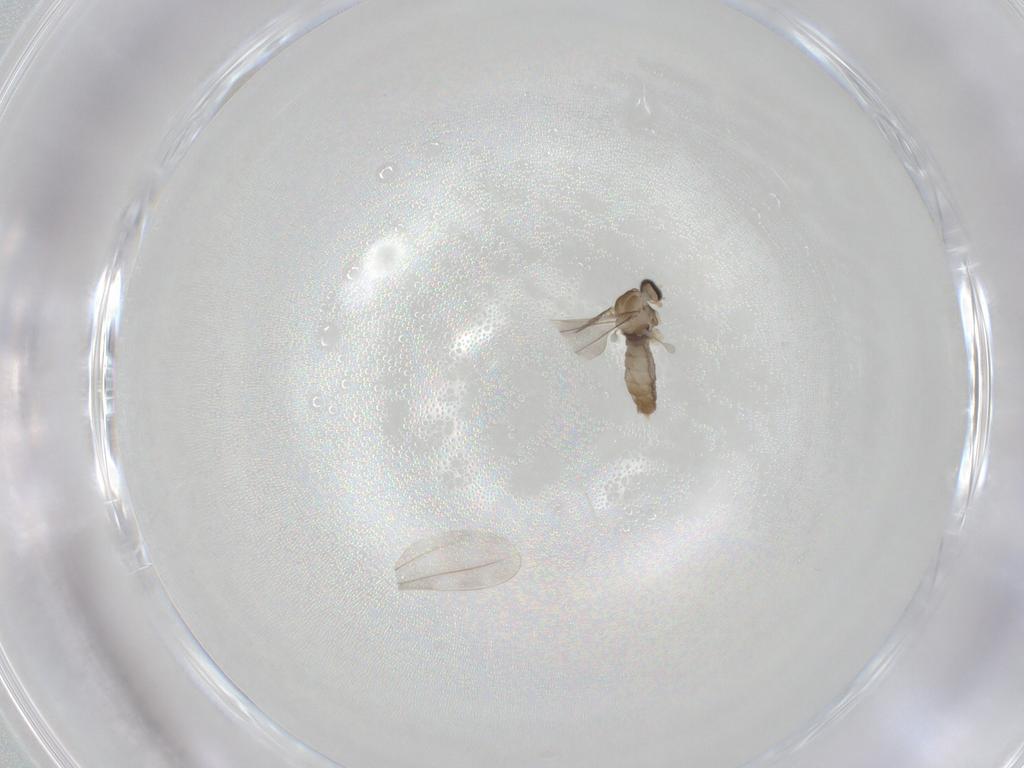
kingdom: Animalia
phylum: Arthropoda
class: Insecta
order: Diptera
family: Cecidomyiidae
